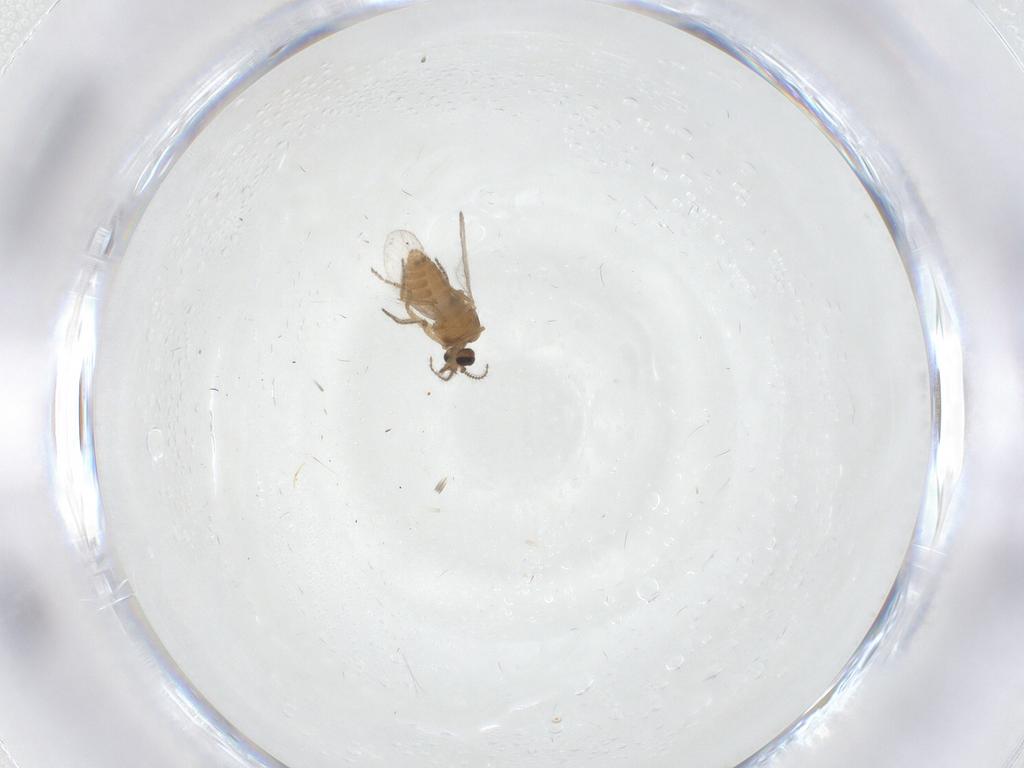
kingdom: Animalia
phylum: Arthropoda
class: Insecta
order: Diptera
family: Ceratopogonidae
